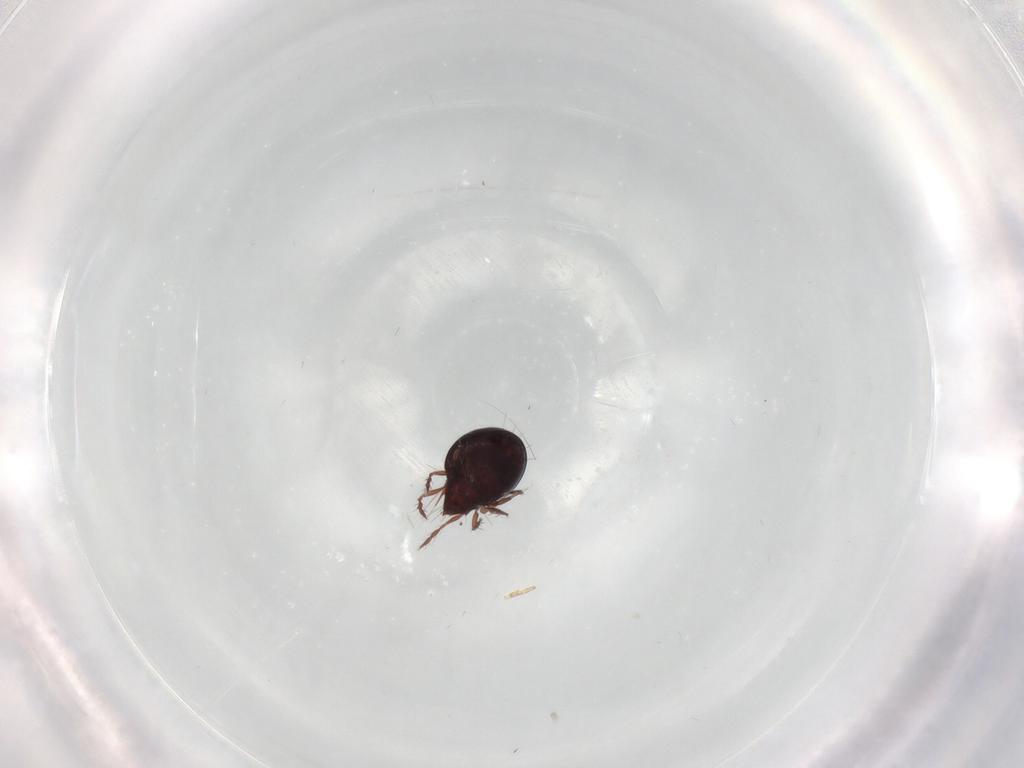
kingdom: Animalia
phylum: Arthropoda
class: Arachnida
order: Sarcoptiformes
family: Ceratoppiidae
